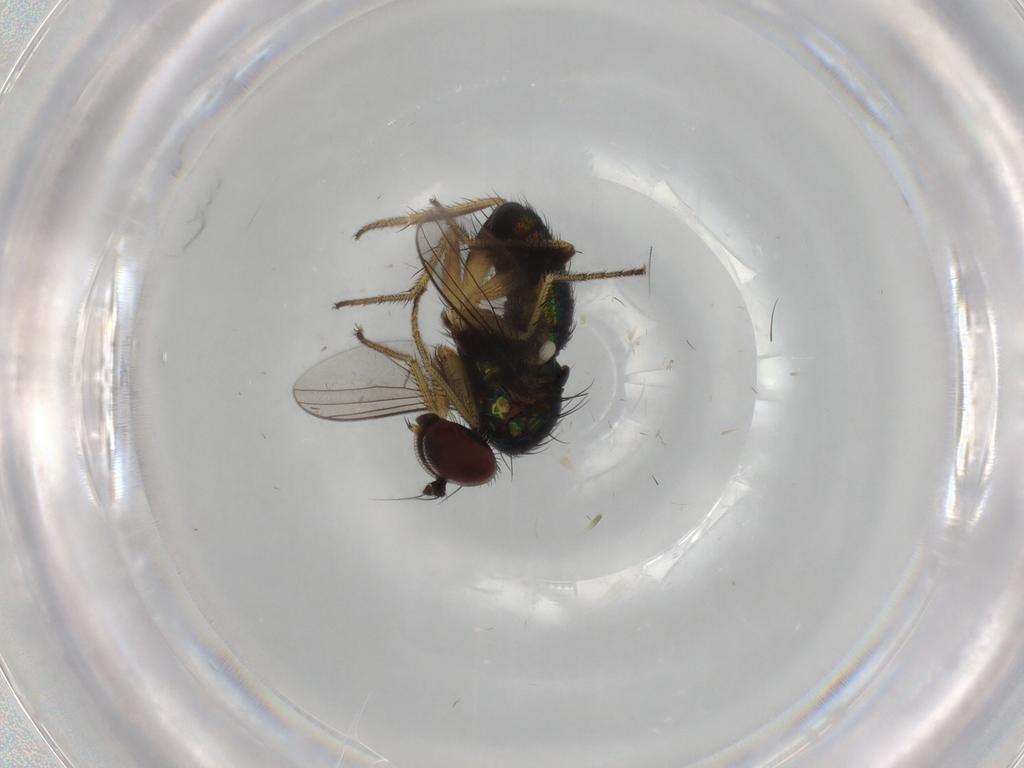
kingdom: Animalia
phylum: Arthropoda
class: Insecta
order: Diptera
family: Dolichopodidae
